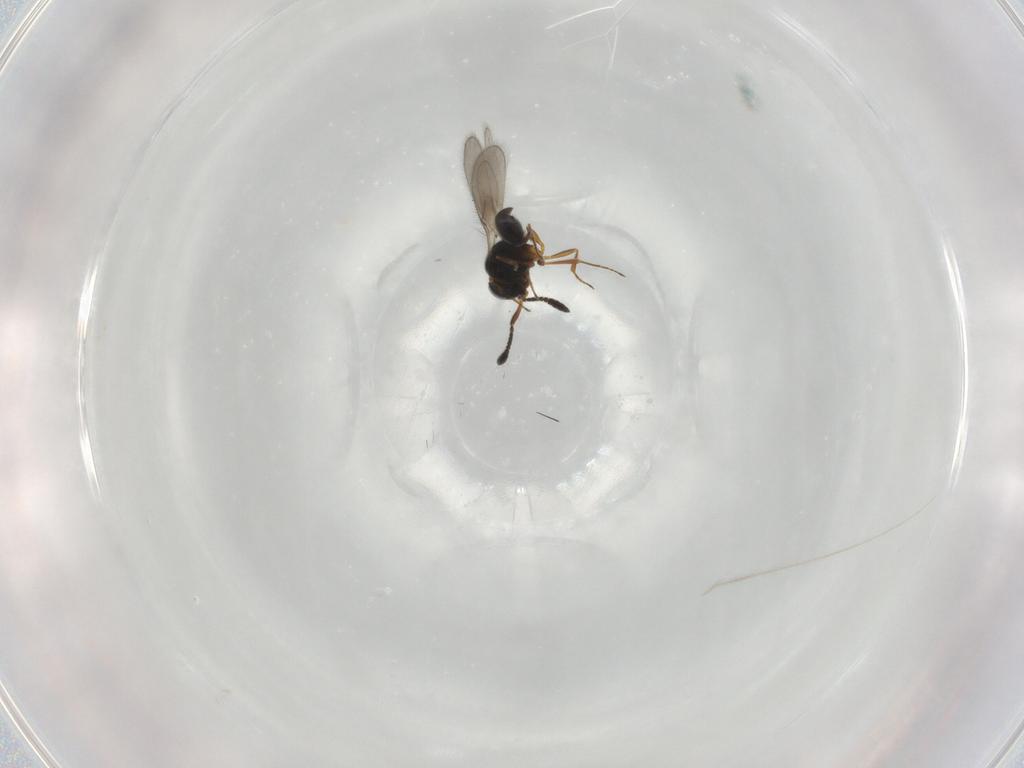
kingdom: Animalia
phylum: Arthropoda
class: Insecta
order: Hymenoptera
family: Scelionidae
